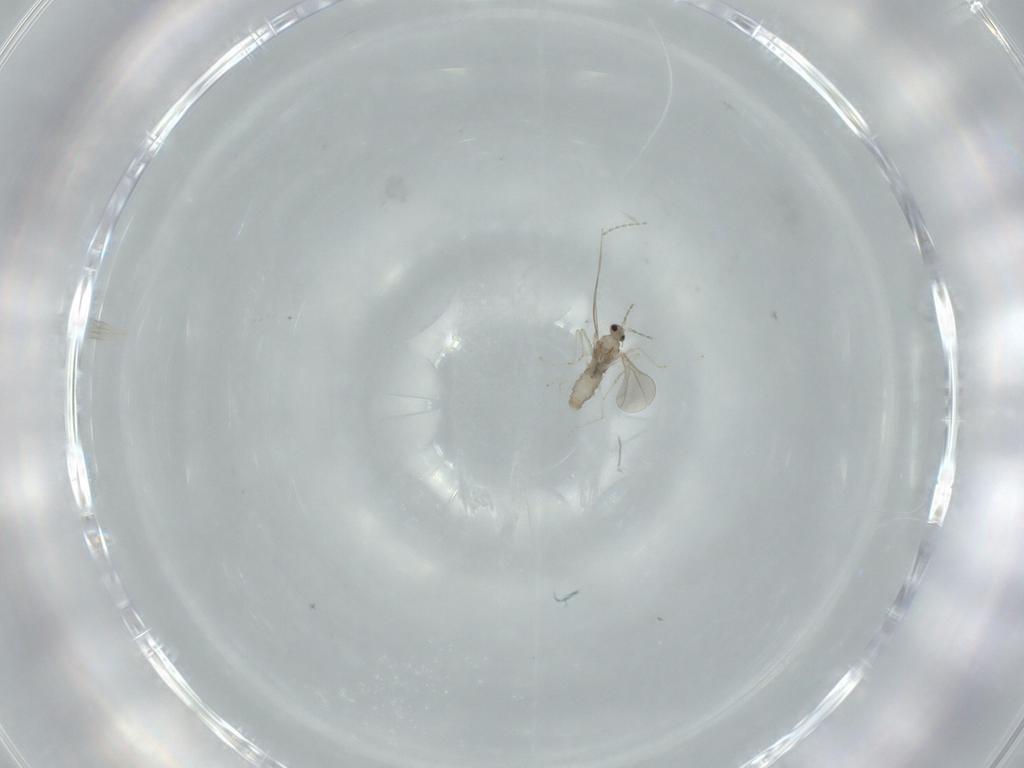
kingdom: Animalia
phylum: Arthropoda
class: Insecta
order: Diptera
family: Cecidomyiidae
